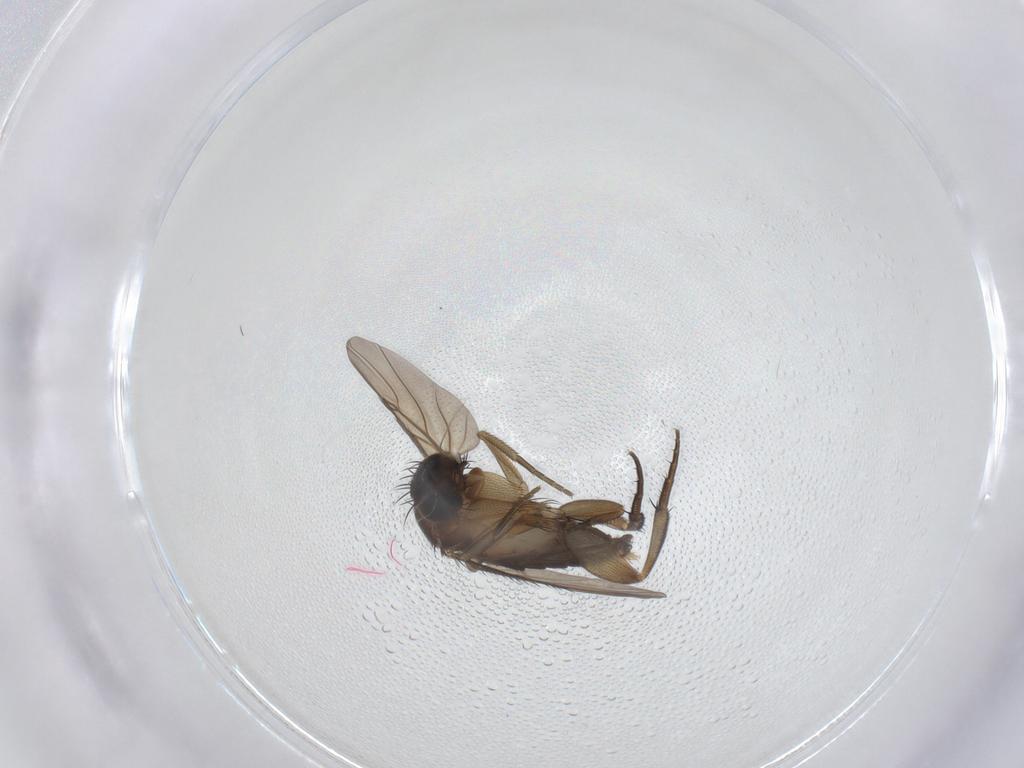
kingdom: Animalia
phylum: Arthropoda
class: Insecta
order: Diptera
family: Phoridae
